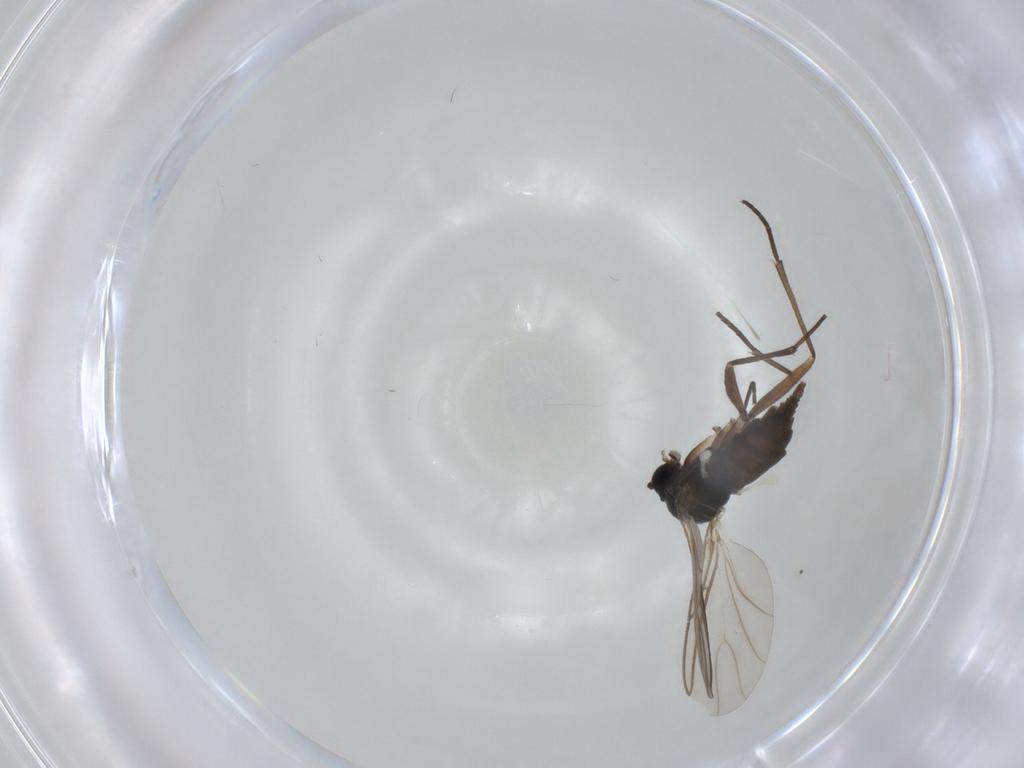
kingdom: Animalia
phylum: Arthropoda
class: Insecta
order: Diptera
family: Sciaridae
